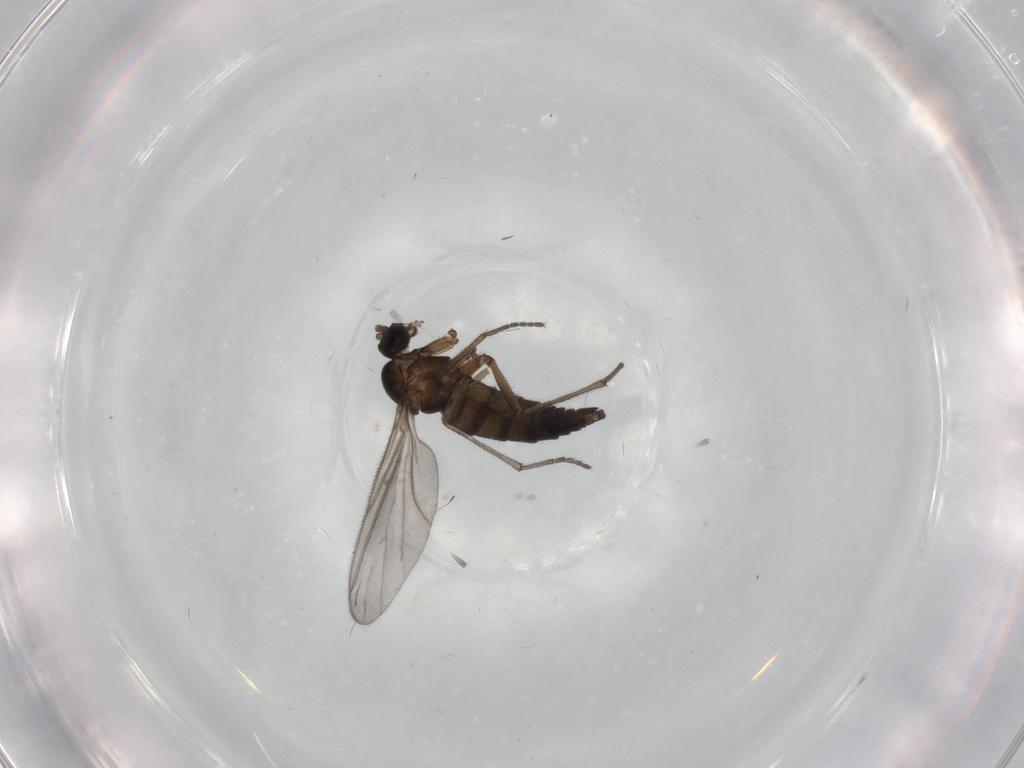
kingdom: Animalia
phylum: Arthropoda
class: Insecta
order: Diptera
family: Sciaridae
